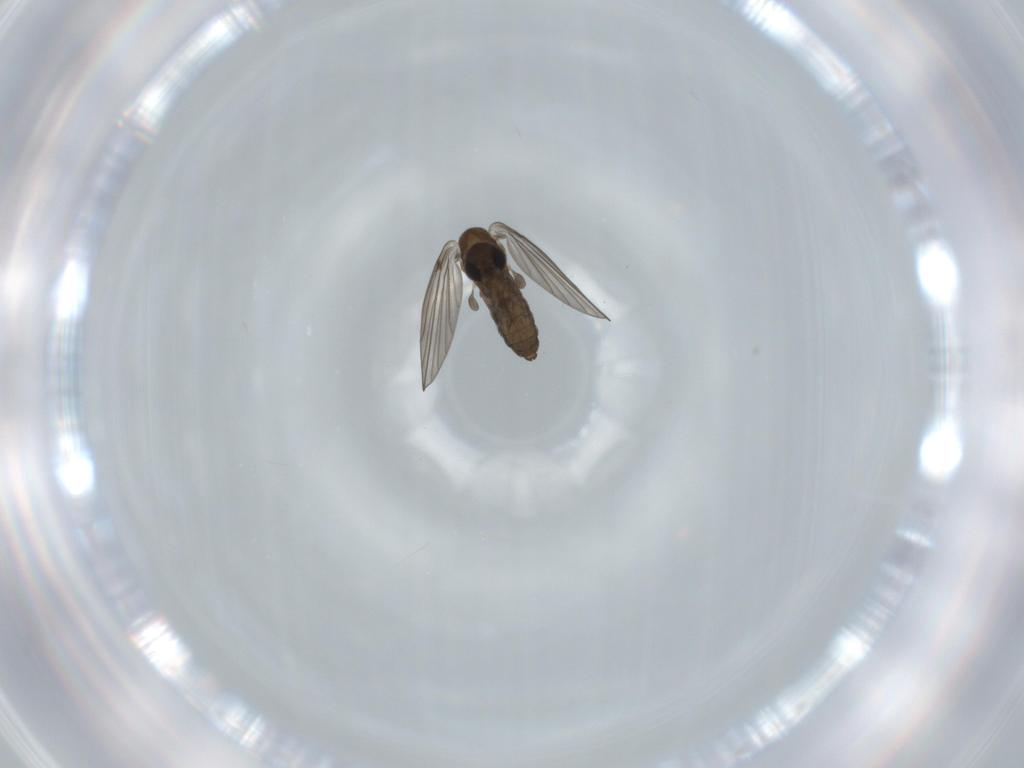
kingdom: Animalia
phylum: Arthropoda
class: Insecta
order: Diptera
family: Psychodidae
